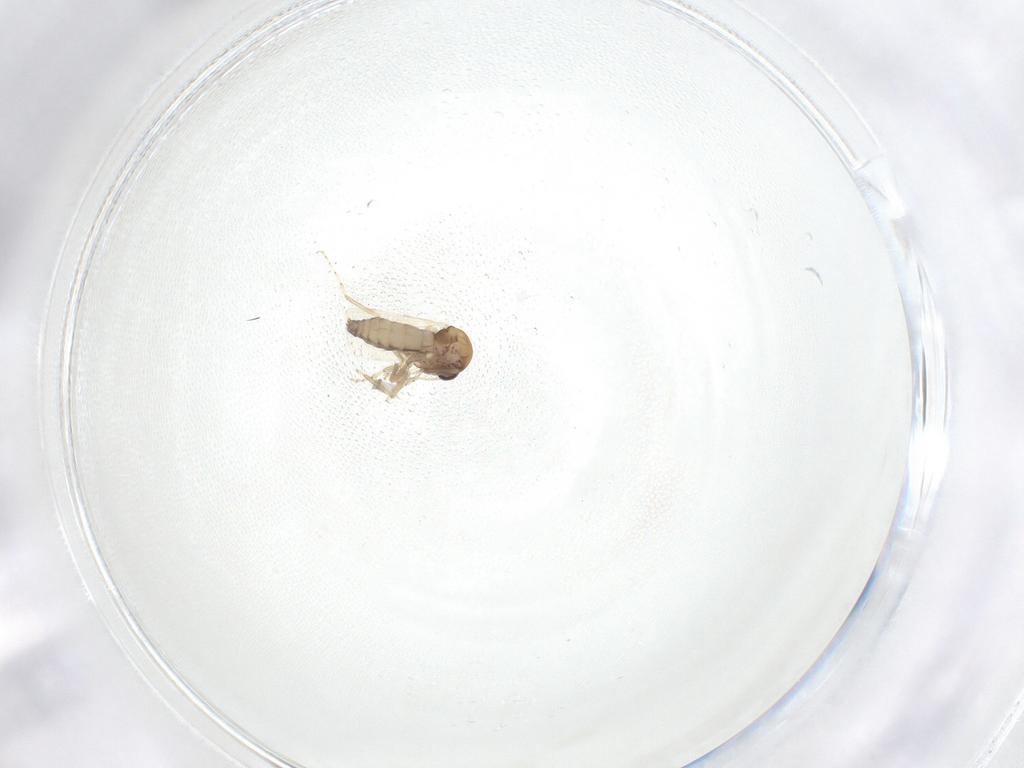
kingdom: Animalia
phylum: Arthropoda
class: Insecta
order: Diptera
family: Ceratopogonidae
